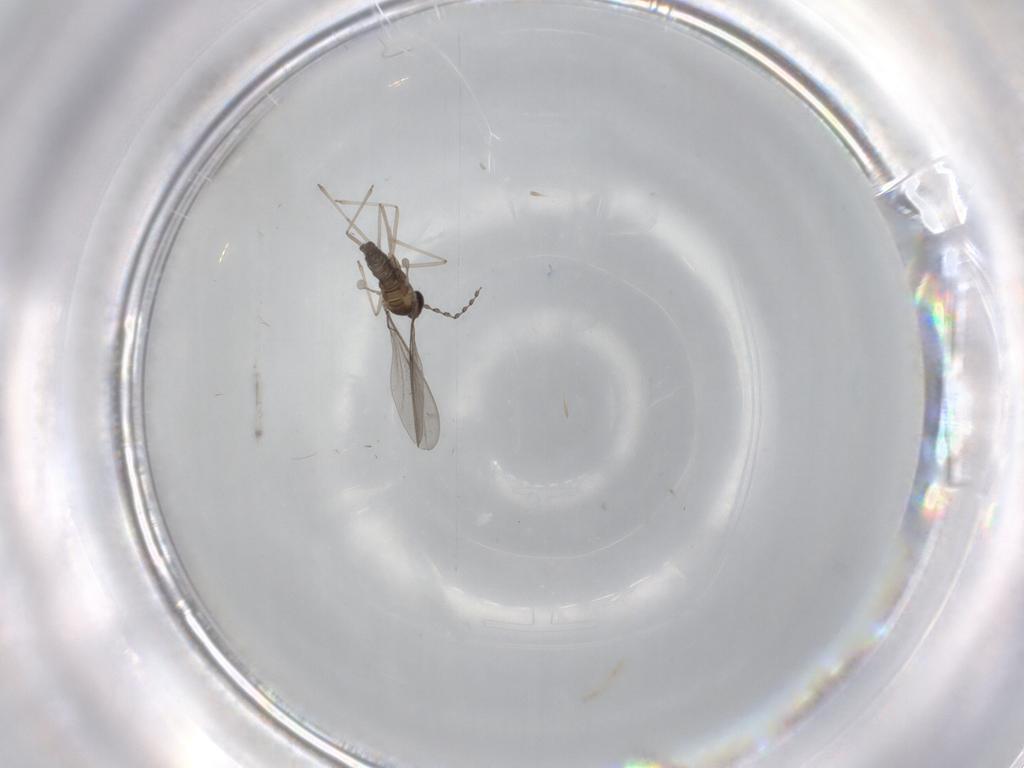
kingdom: Animalia
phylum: Arthropoda
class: Insecta
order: Diptera
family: Cecidomyiidae
